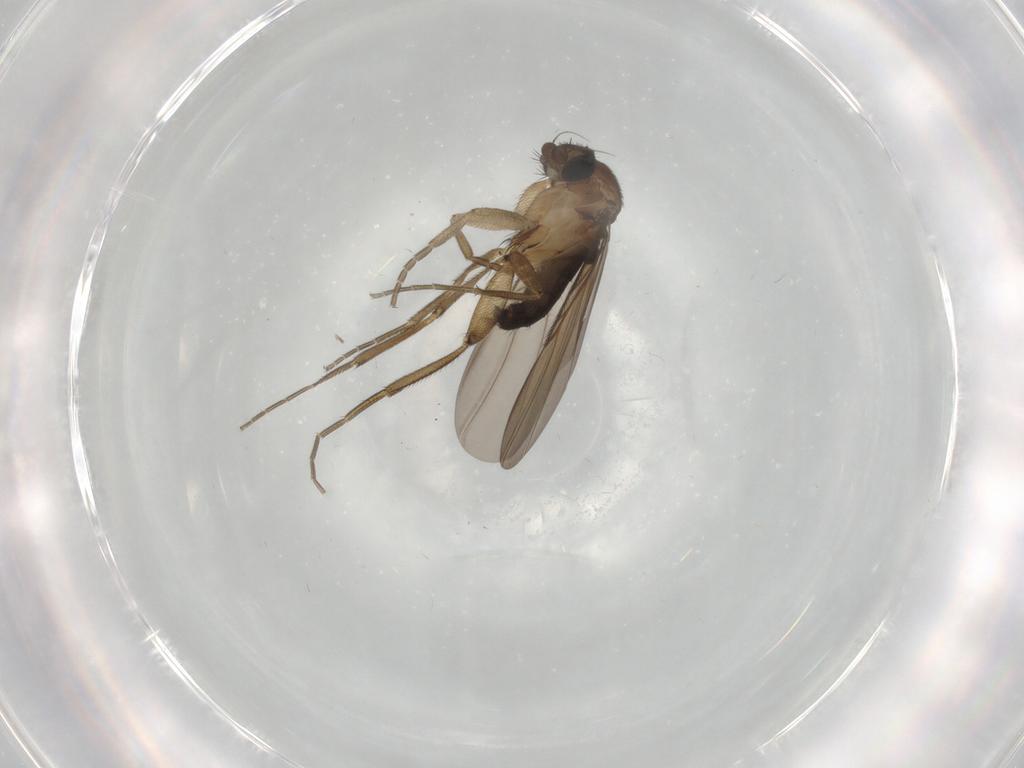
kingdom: Animalia
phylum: Arthropoda
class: Insecta
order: Diptera
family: Phoridae
